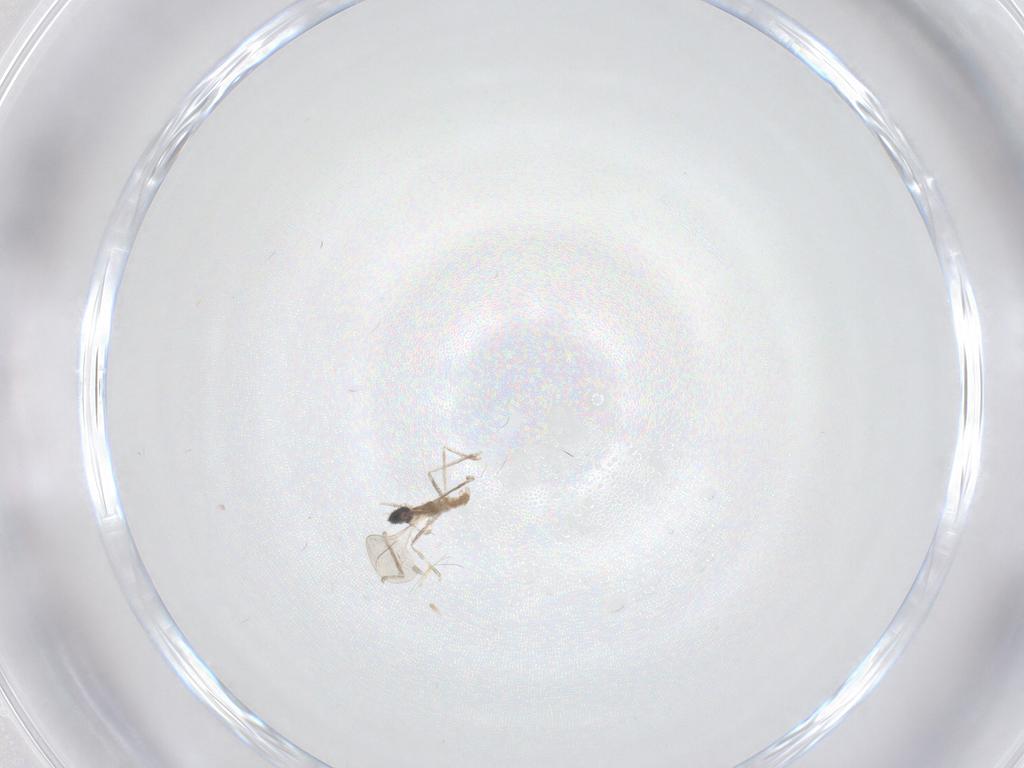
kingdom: Animalia
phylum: Arthropoda
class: Insecta
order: Diptera
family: Cecidomyiidae
